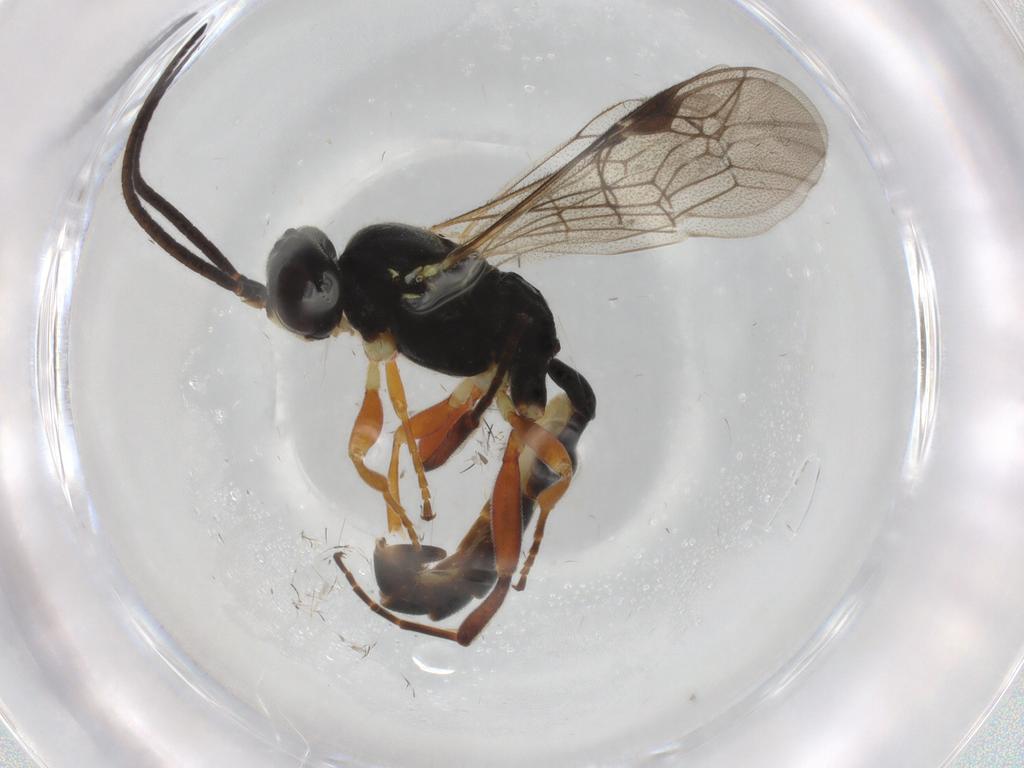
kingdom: Animalia
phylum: Arthropoda
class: Insecta
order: Hymenoptera
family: Ichneumonidae
